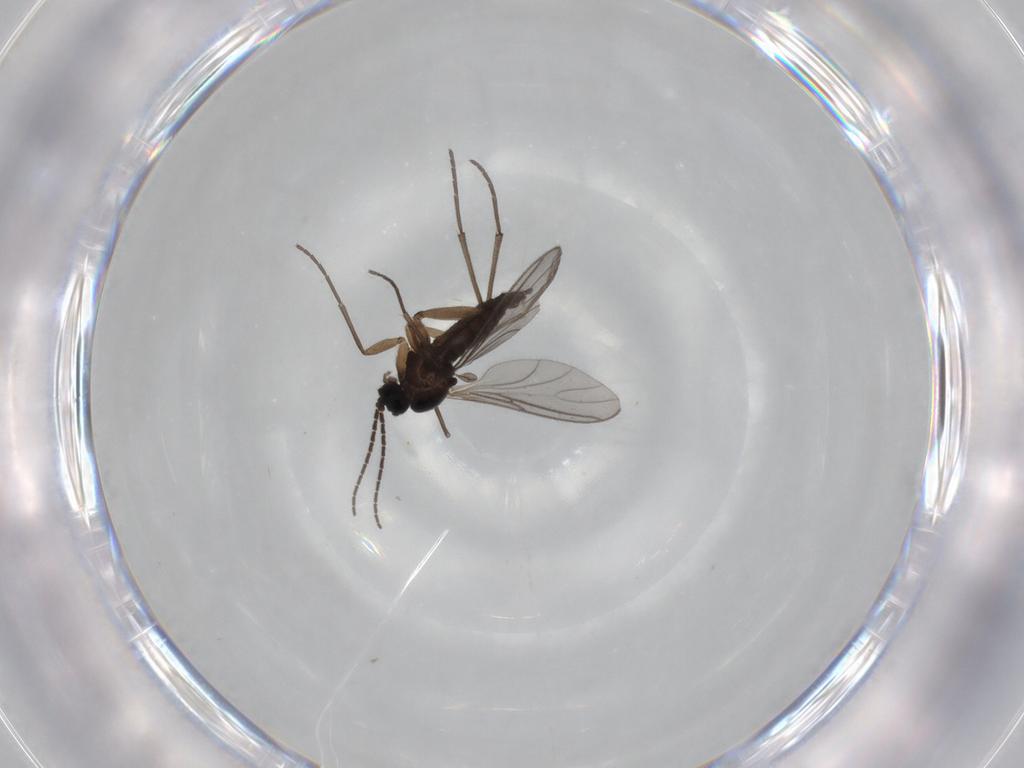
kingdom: Animalia
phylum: Arthropoda
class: Insecta
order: Diptera
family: Sciaridae
